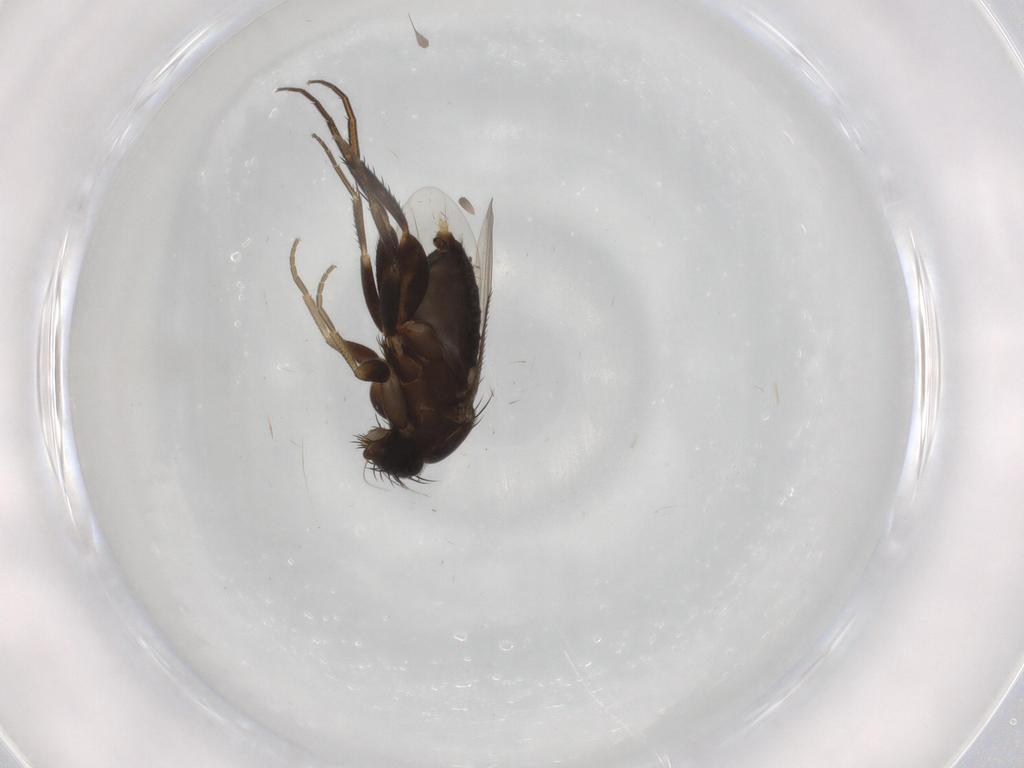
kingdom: Animalia
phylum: Arthropoda
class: Insecta
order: Diptera
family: Phoridae
